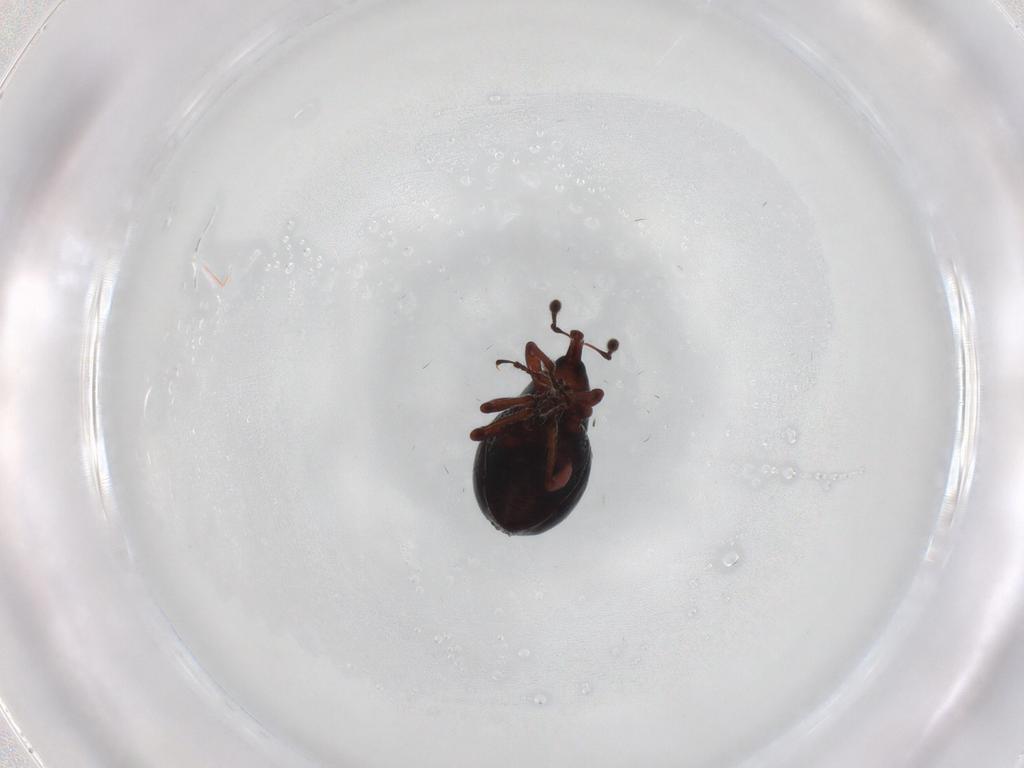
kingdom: Animalia
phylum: Arthropoda
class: Insecta
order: Coleoptera
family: Curculionidae
